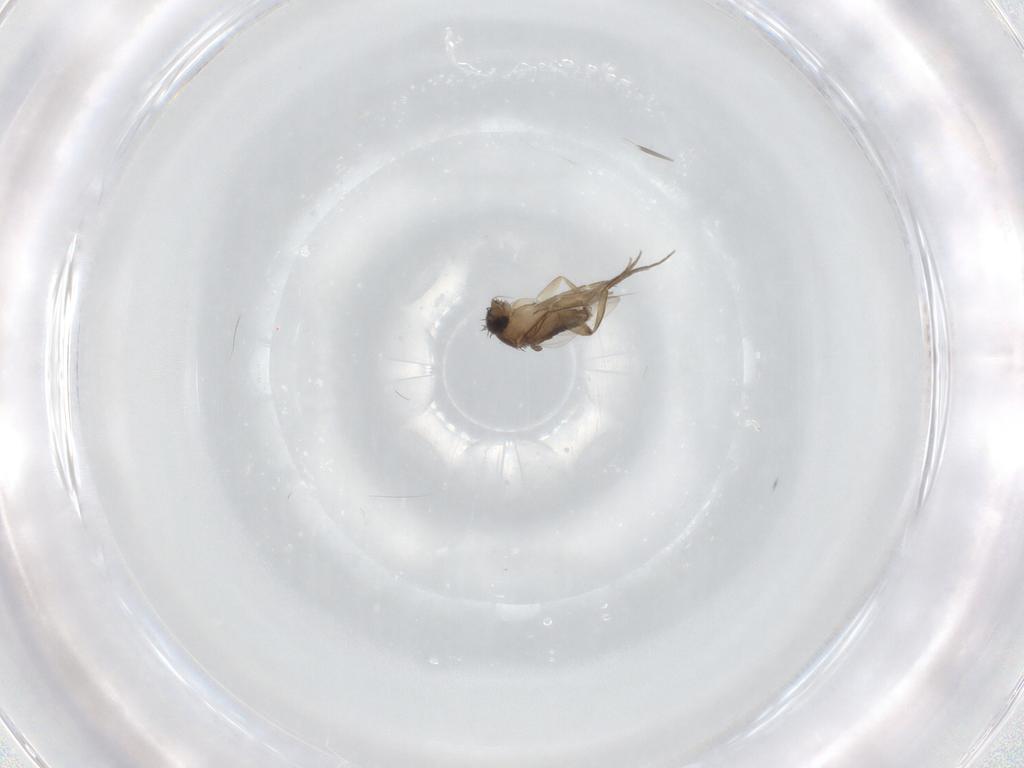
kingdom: Animalia
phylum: Arthropoda
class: Insecta
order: Diptera
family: Phoridae
